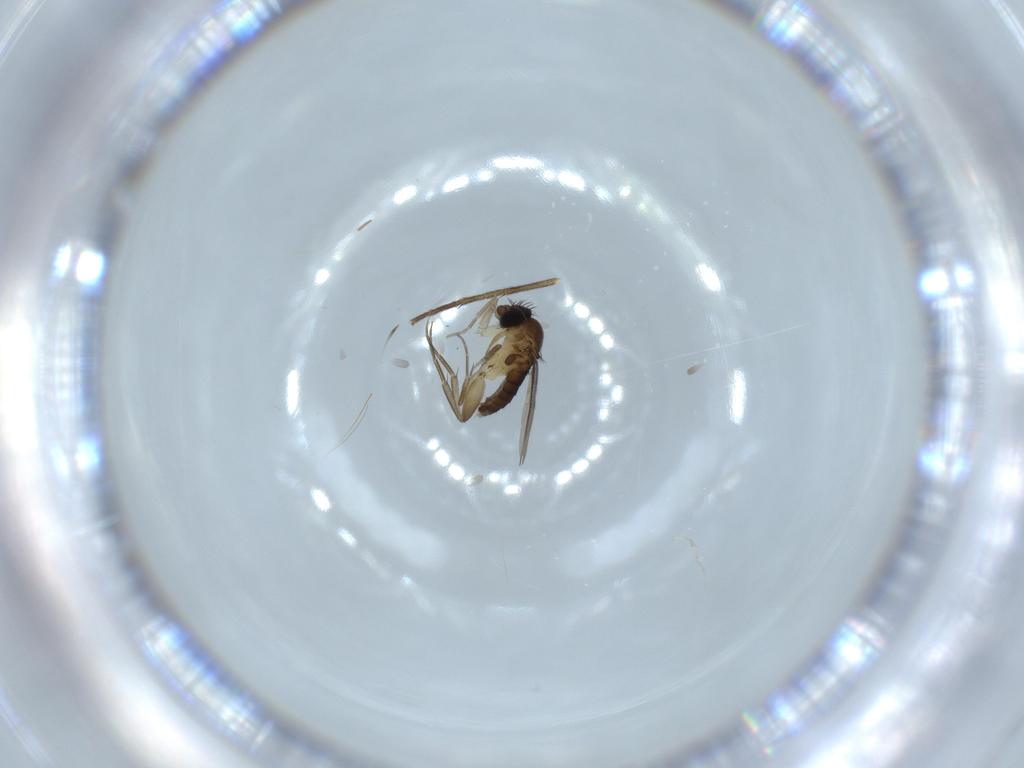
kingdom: Animalia
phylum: Arthropoda
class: Insecta
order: Diptera
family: Phoridae
